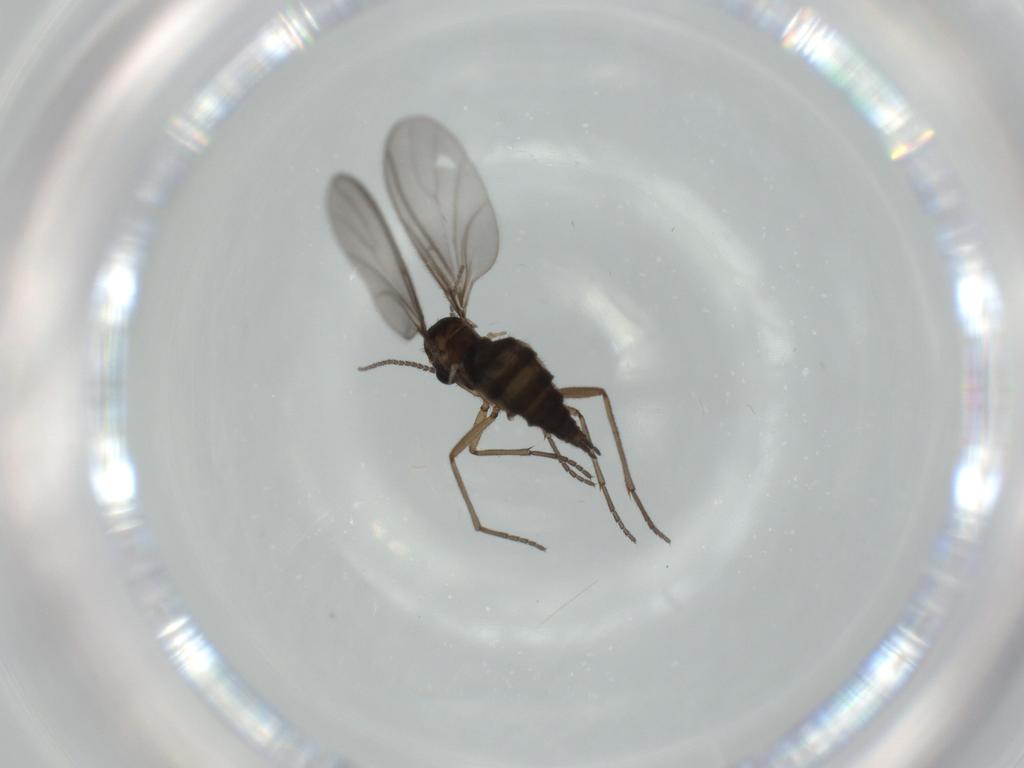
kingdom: Animalia
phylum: Arthropoda
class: Insecta
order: Diptera
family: Sciaridae
